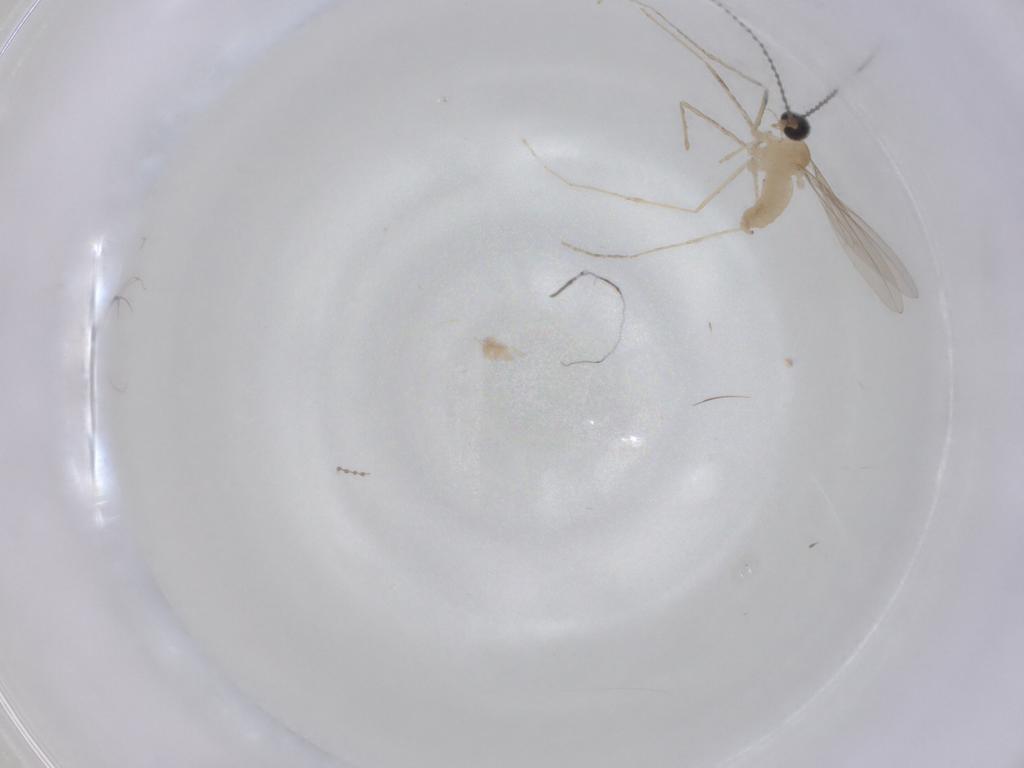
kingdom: Animalia
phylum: Arthropoda
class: Insecta
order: Diptera
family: Cecidomyiidae
